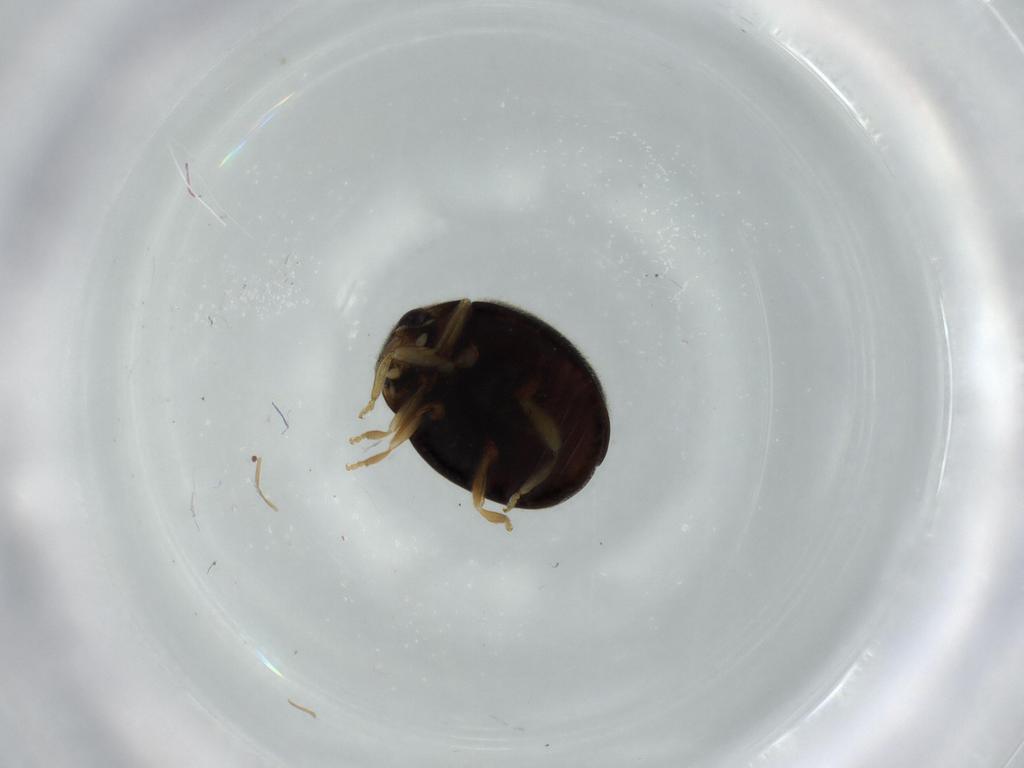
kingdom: Animalia
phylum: Arthropoda
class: Insecta
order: Coleoptera
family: Coccinellidae
